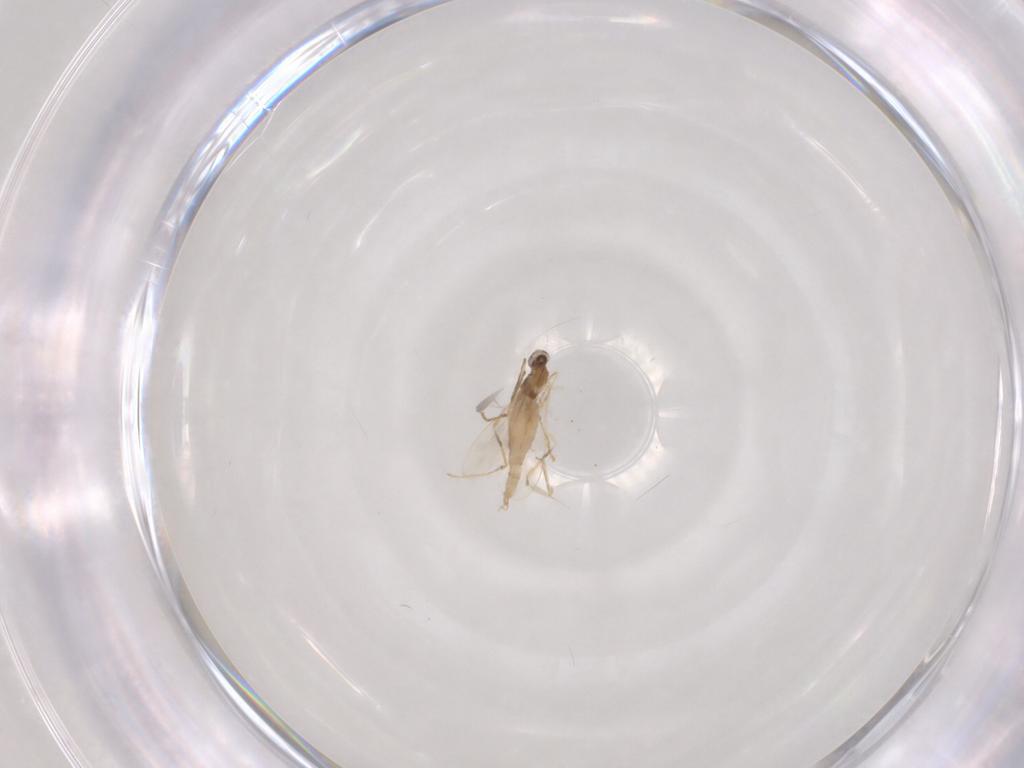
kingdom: Animalia
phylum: Arthropoda
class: Insecta
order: Diptera
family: Cecidomyiidae
